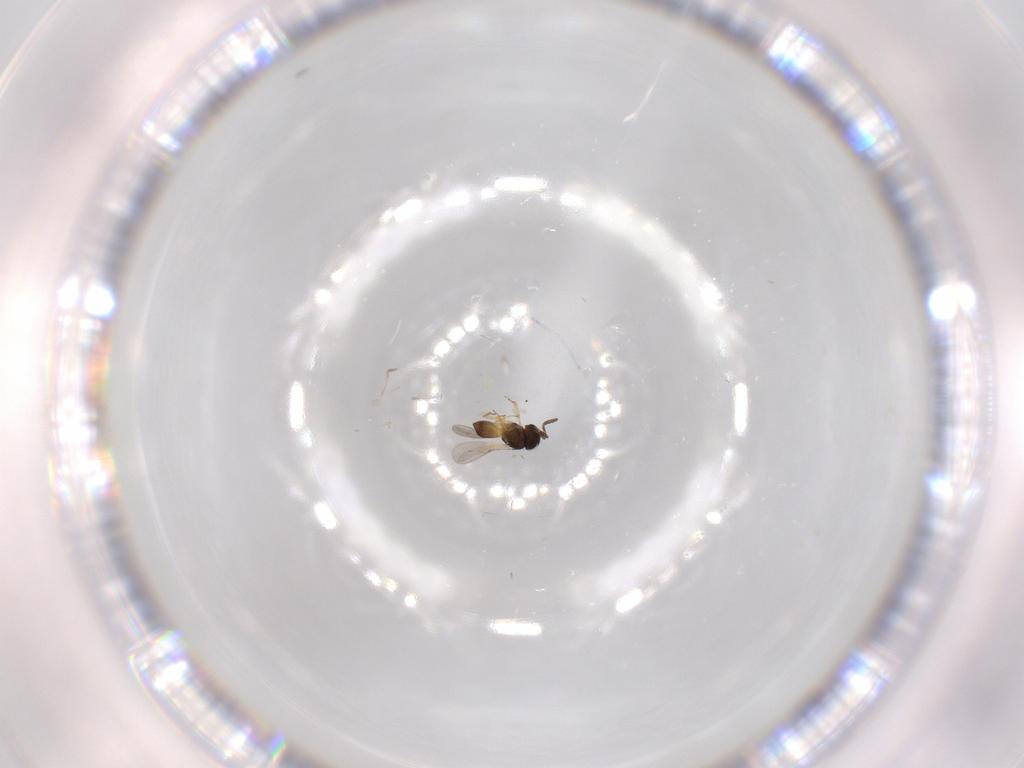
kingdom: Animalia
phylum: Arthropoda
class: Insecta
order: Hymenoptera
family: Scelionidae
